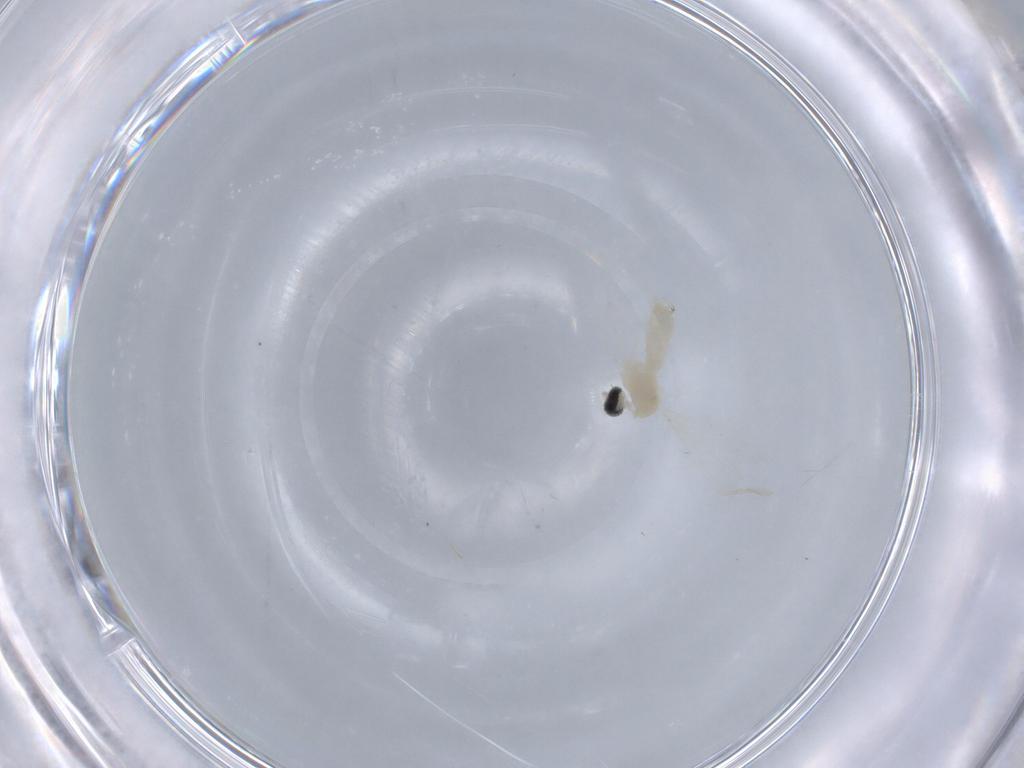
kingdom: Animalia
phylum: Arthropoda
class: Insecta
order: Diptera
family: Cecidomyiidae
